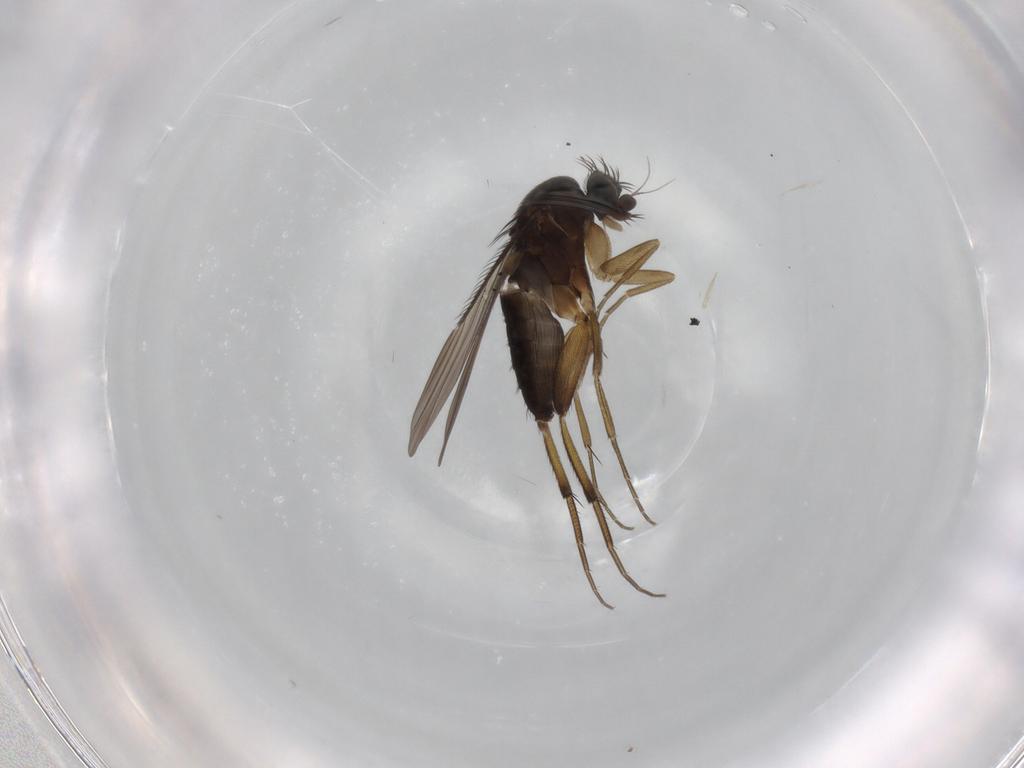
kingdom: Animalia
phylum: Arthropoda
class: Insecta
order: Diptera
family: Phoridae
